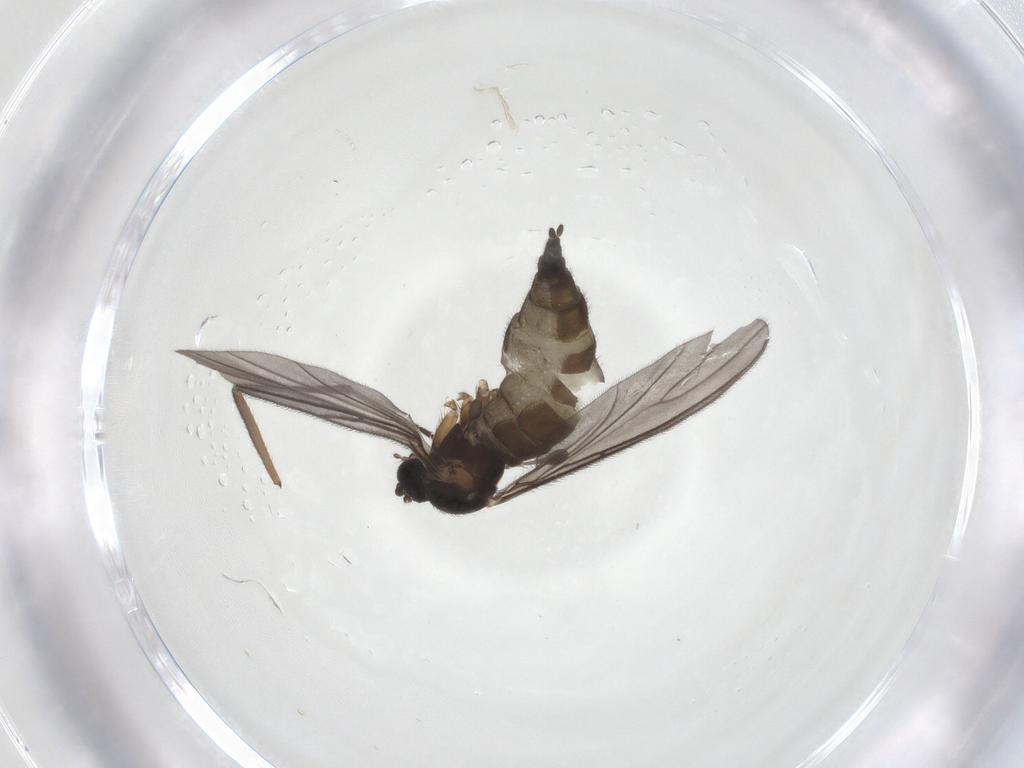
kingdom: Animalia
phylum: Arthropoda
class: Insecta
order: Diptera
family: Sciaridae
